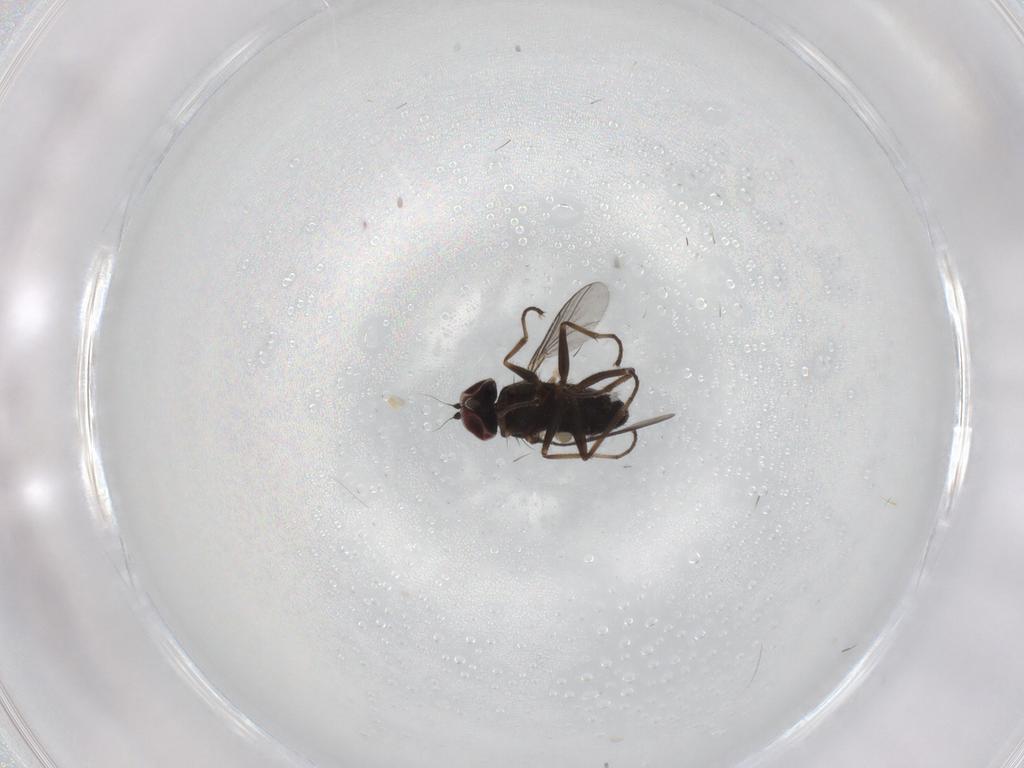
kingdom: Animalia
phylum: Arthropoda
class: Insecta
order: Diptera
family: Dolichopodidae
